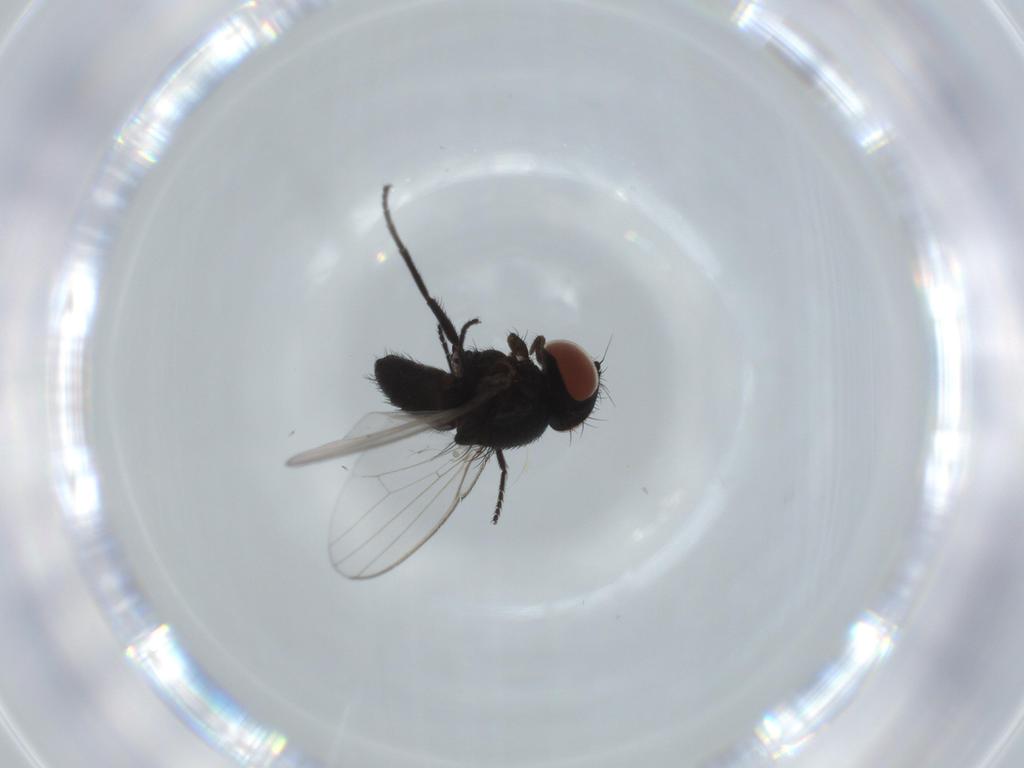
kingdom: Animalia
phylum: Arthropoda
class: Insecta
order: Diptera
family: Milichiidae
